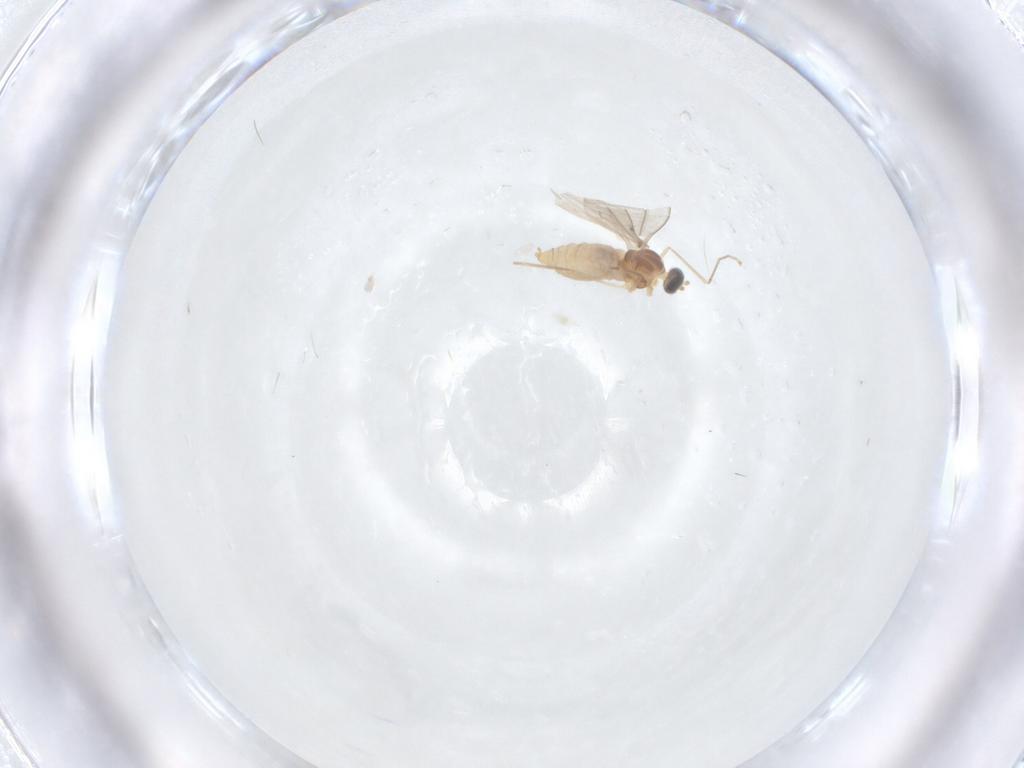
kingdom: Animalia
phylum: Arthropoda
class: Insecta
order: Diptera
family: Cecidomyiidae
